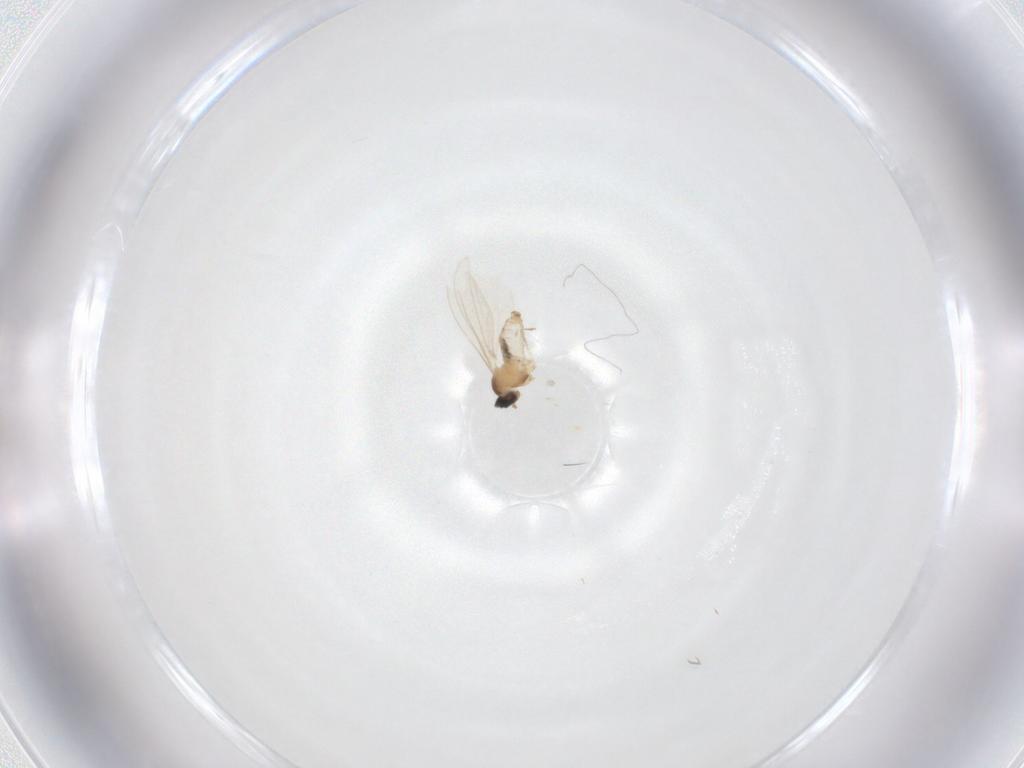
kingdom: Animalia
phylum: Arthropoda
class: Insecta
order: Diptera
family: Cecidomyiidae
